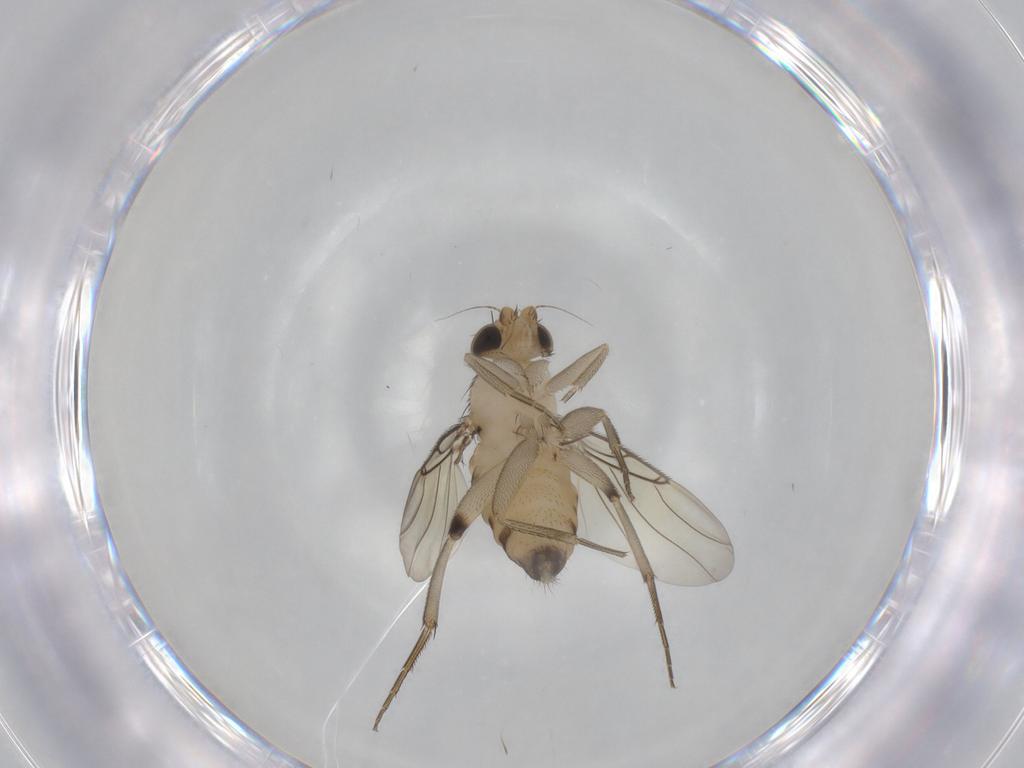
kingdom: Animalia
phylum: Arthropoda
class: Insecta
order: Diptera
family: Phoridae
